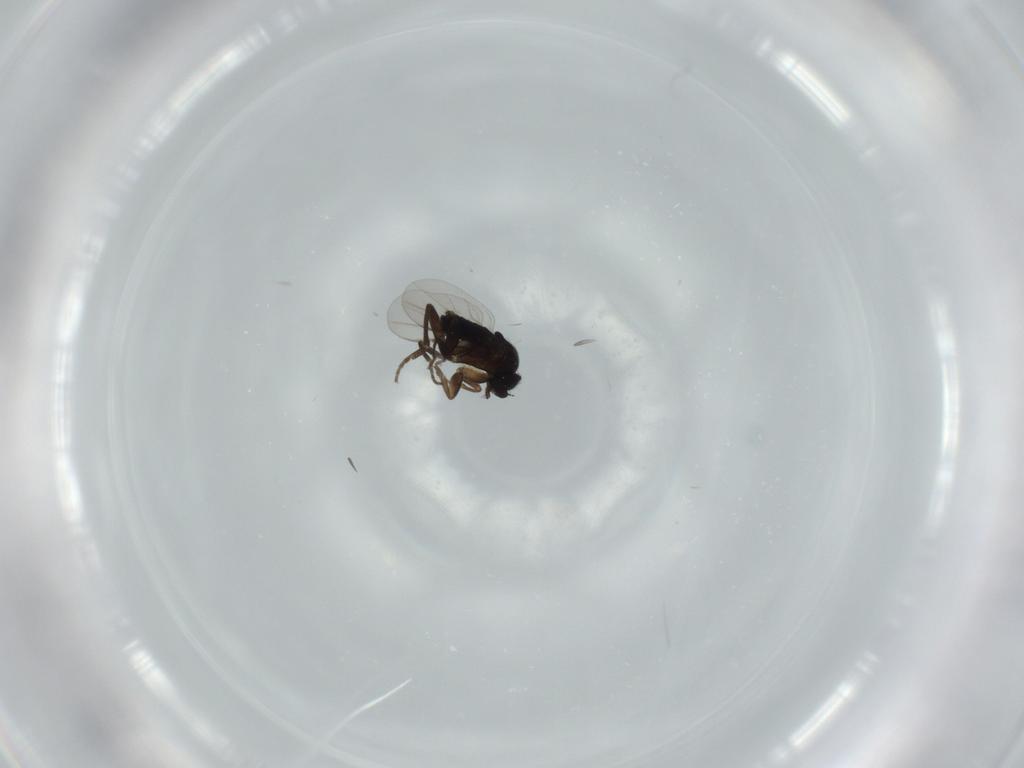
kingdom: Animalia
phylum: Arthropoda
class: Insecta
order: Diptera
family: Phoridae
